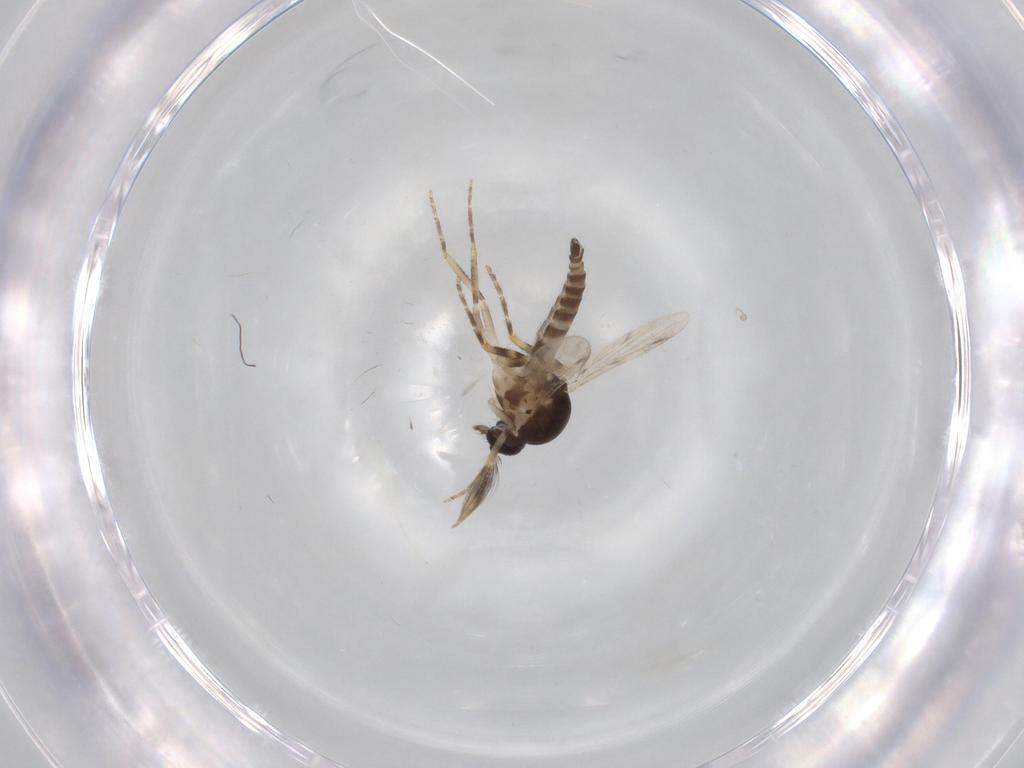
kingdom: Animalia
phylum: Arthropoda
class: Insecta
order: Diptera
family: Ceratopogonidae
